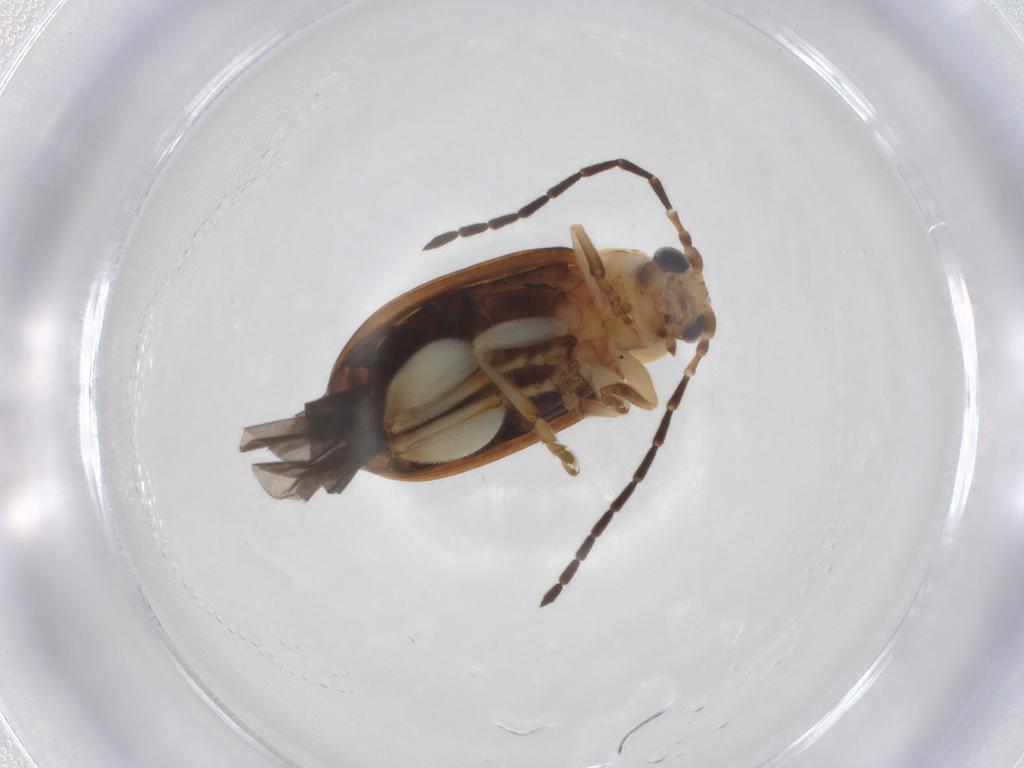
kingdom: Animalia
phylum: Arthropoda
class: Insecta
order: Coleoptera
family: Chrysomelidae
